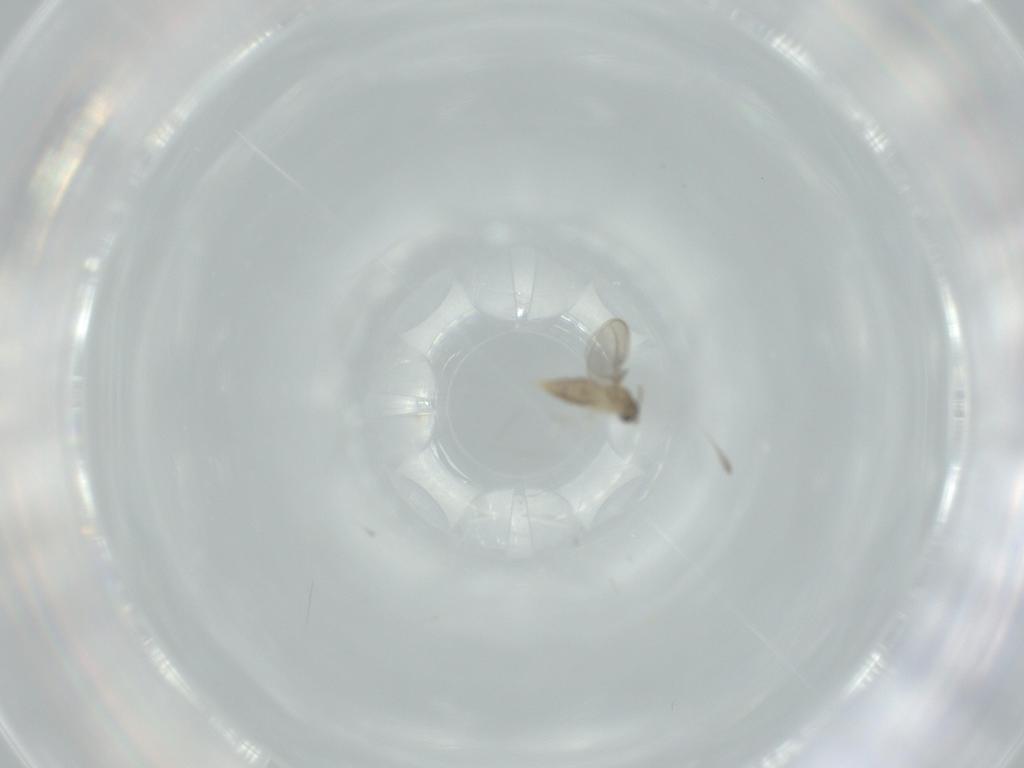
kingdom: Animalia
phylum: Arthropoda
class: Insecta
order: Diptera
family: Cecidomyiidae
